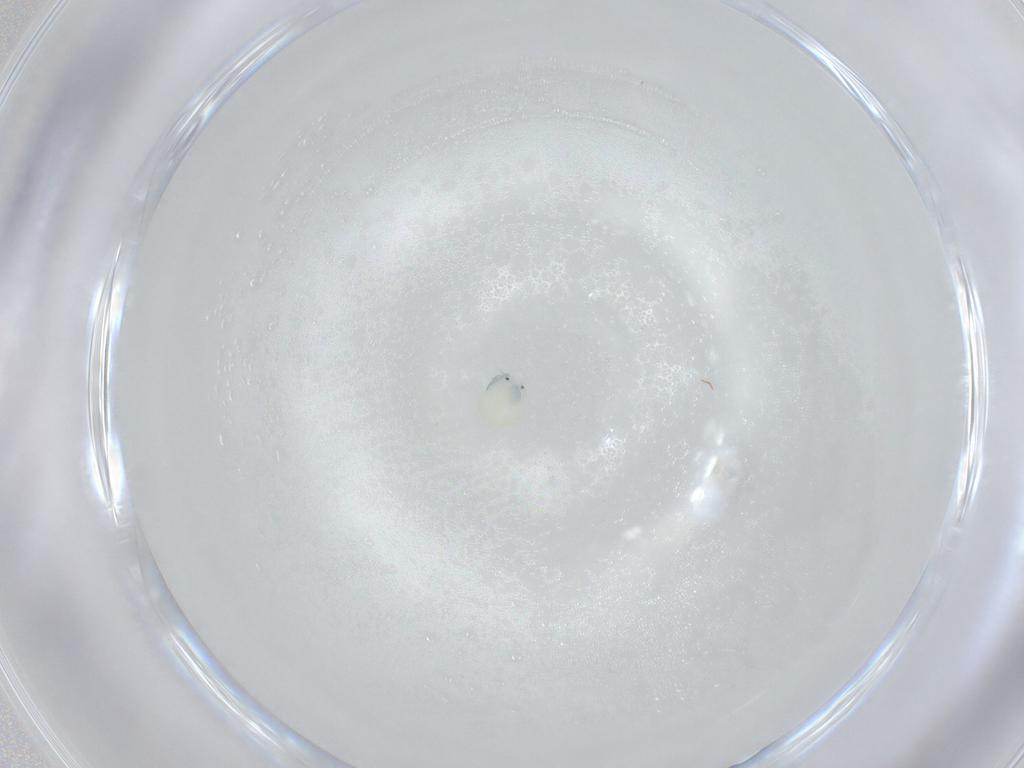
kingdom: Animalia
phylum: Arthropoda
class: Arachnida
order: Trombidiformes
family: Arrenuridae
